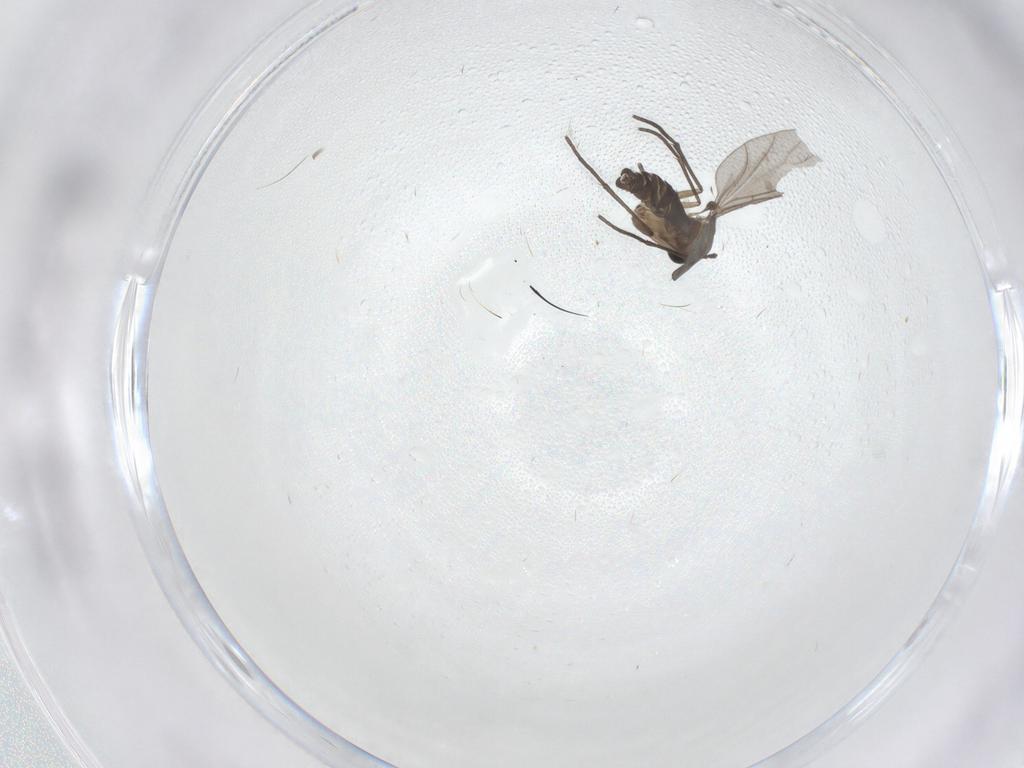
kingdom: Animalia
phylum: Arthropoda
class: Insecta
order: Diptera
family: Sciaridae
